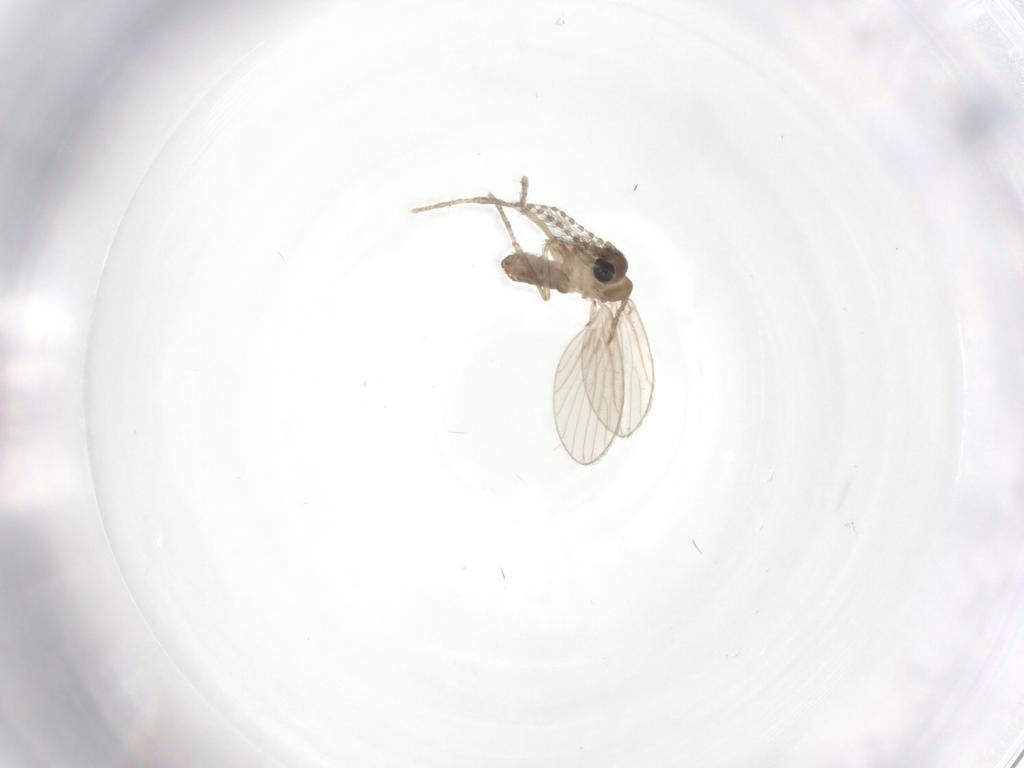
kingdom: Animalia
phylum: Arthropoda
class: Insecta
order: Diptera
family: Psychodidae
